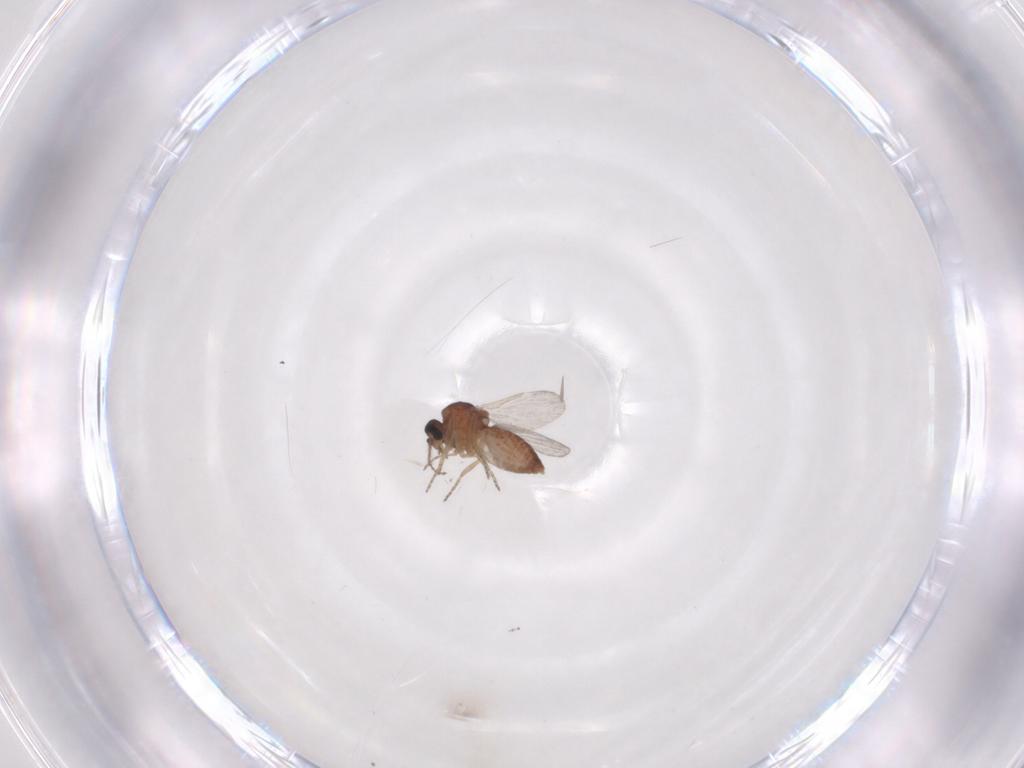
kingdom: Animalia
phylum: Arthropoda
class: Insecta
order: Diptera
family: Ceratopogonidae
